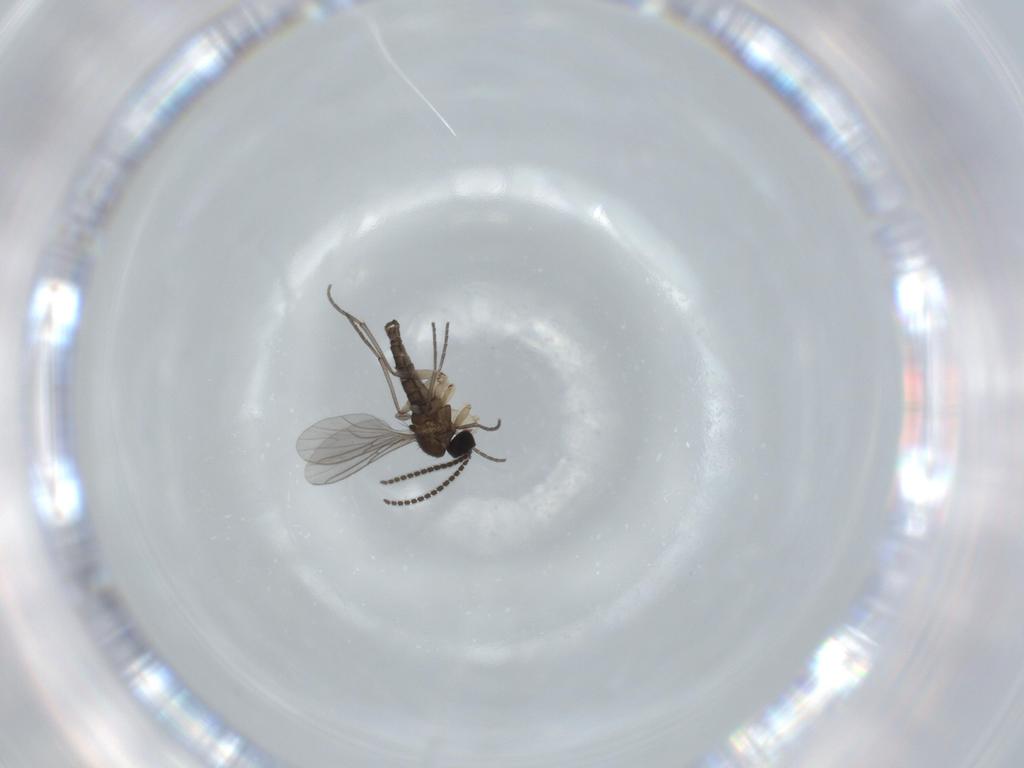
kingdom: Animalia
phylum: Arthropoda
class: Insecta
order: Diptera
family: Sciaridae
